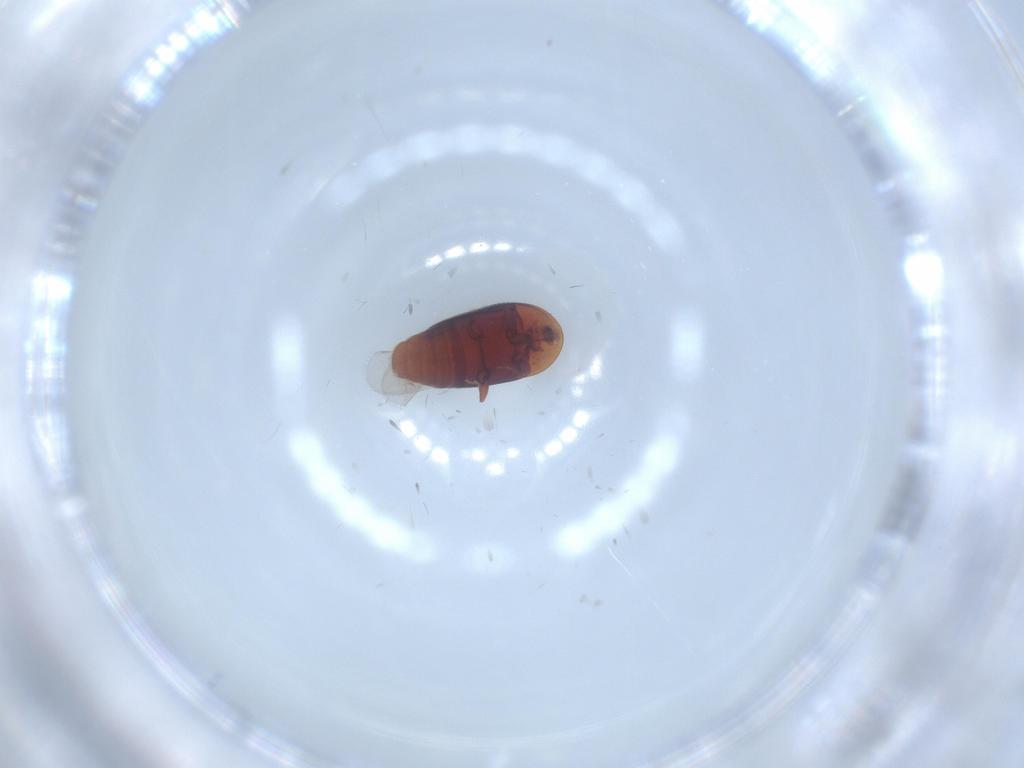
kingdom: Animalia
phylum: Arthropoda
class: Insecta
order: Coleoptera
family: Corylophidae
